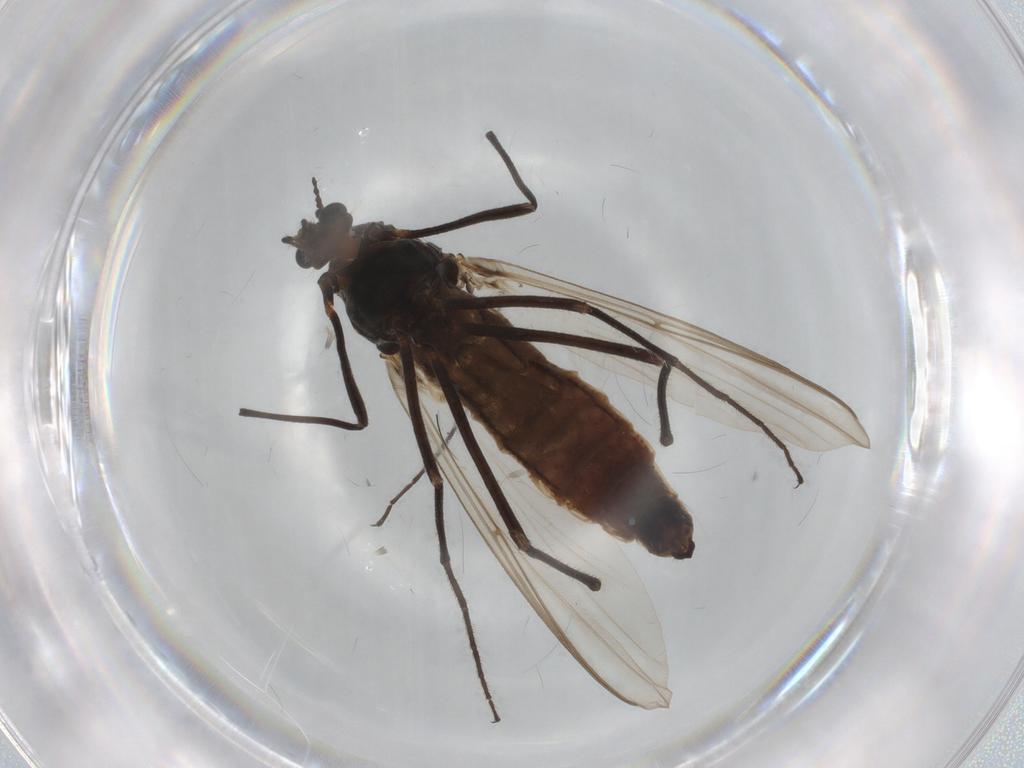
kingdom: Animalia
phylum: Arthropoda
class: Insecta
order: Diptera
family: Chironomidae
